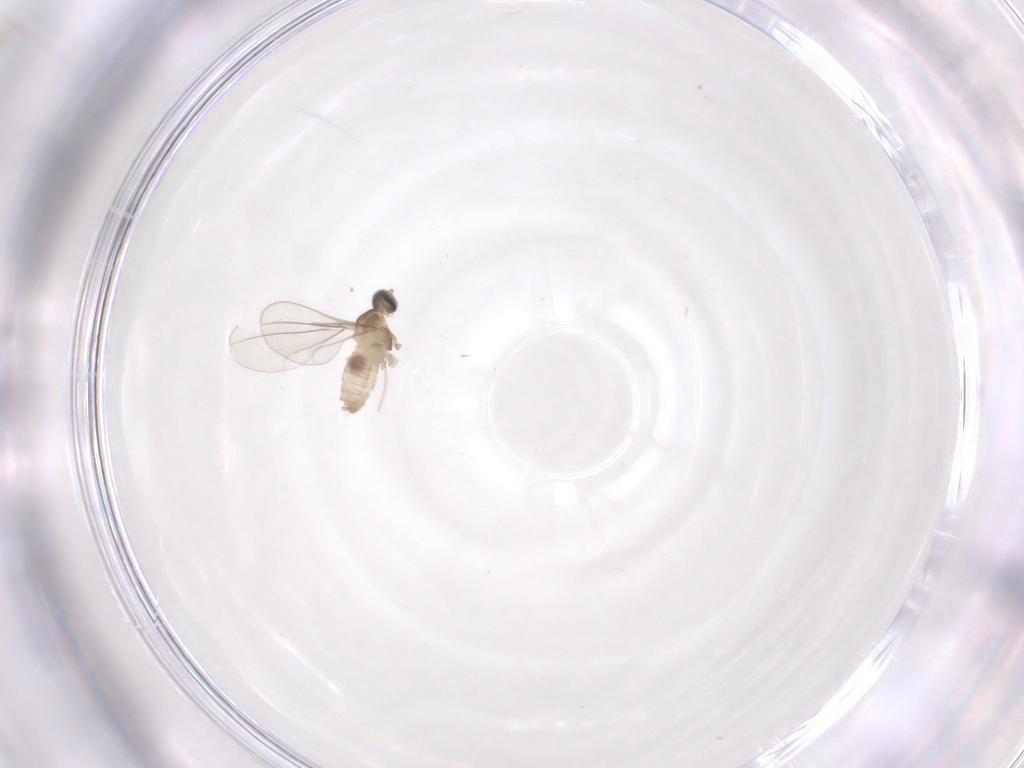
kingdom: Animalia
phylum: Arthropoda
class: Insecta
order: Diptera
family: Cecidomyiidae
